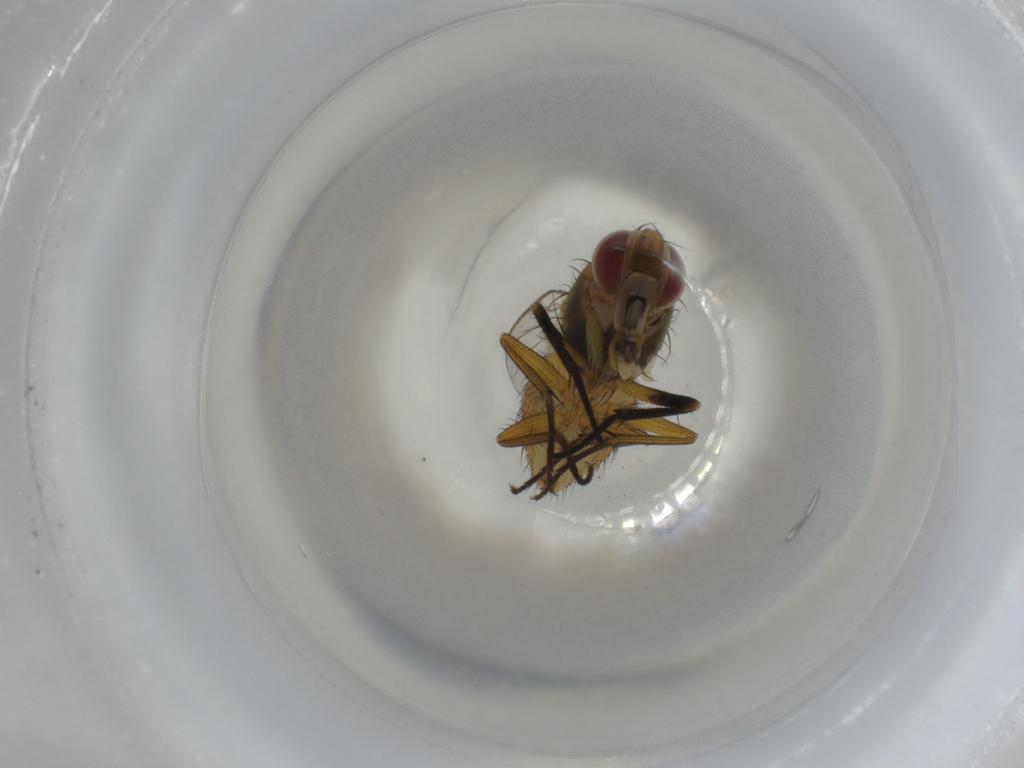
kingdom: Animalia
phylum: Arthropoda
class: Insecta
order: Diptera
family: Muscidae
